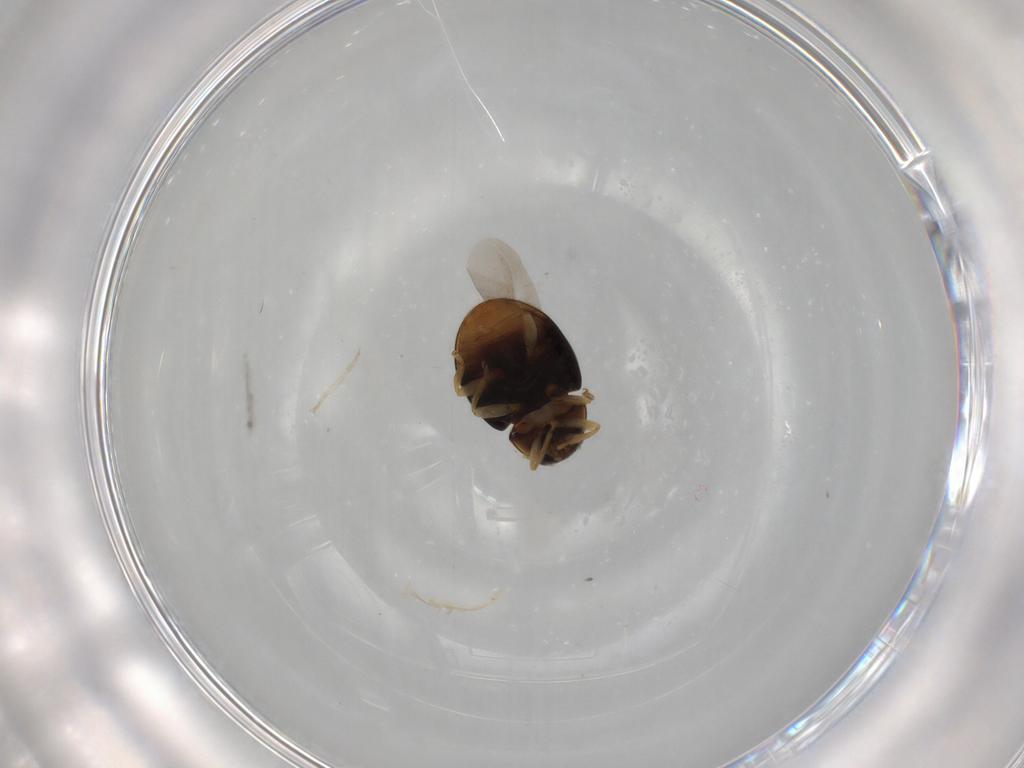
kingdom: Animalia
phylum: Arthropoda
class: Insecta
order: Coleoptera
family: Coccinellidae
